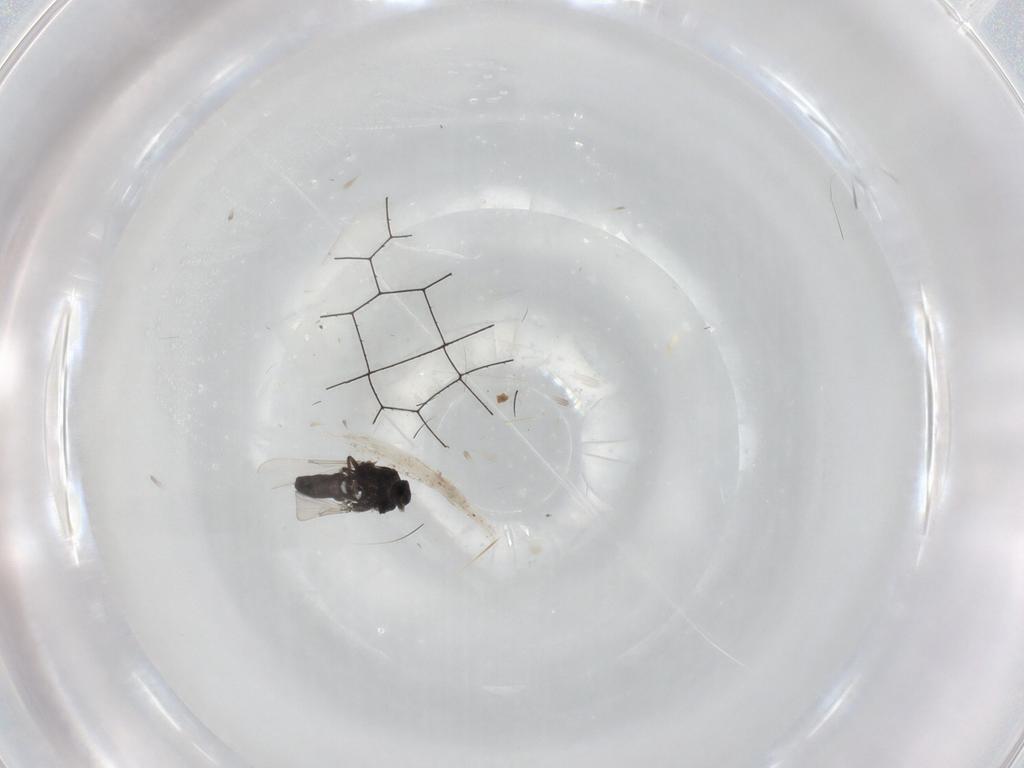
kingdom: Animalia
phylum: Arthropoda
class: Insecta
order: Diptera
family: Ceratopogonidae
